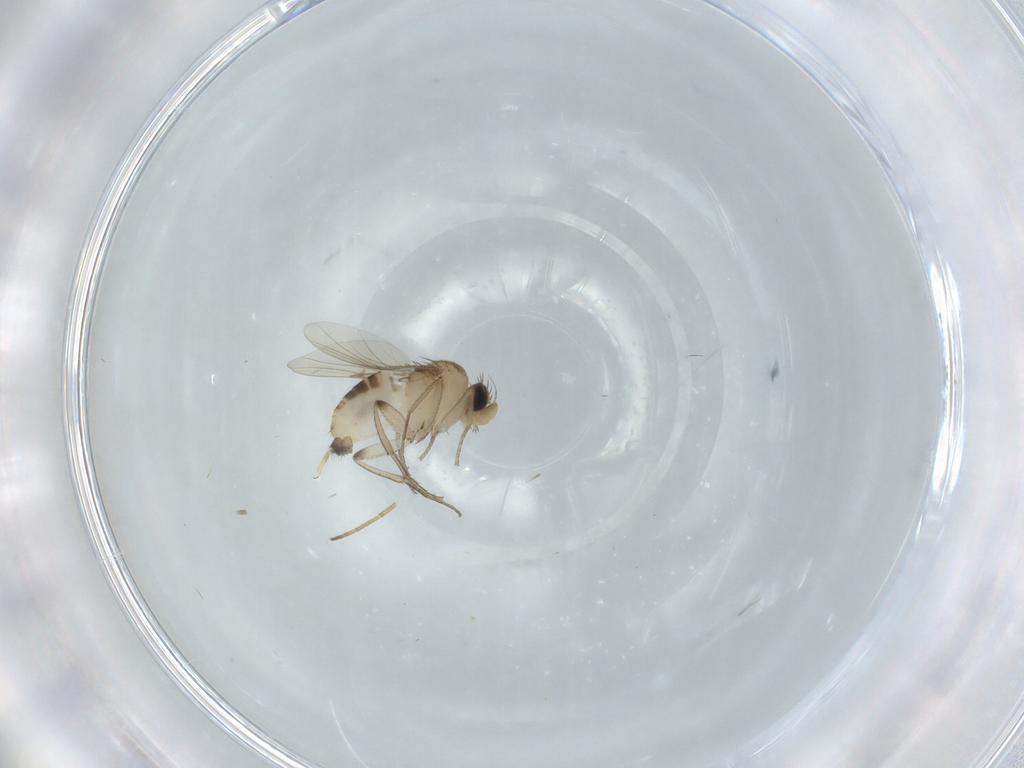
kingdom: Animalia
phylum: Arthropoda
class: Insecta
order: Diptera
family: Phoridae
